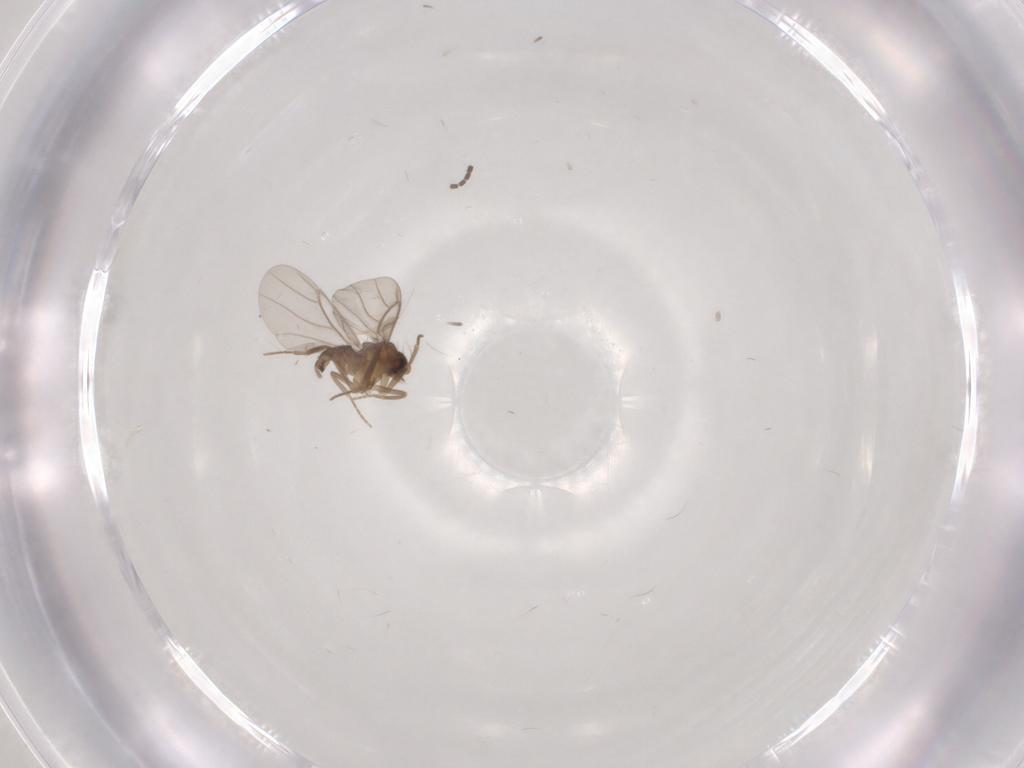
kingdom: Animalia
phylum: Arthropoda
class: Insecta
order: Diptera
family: Sciaridae
